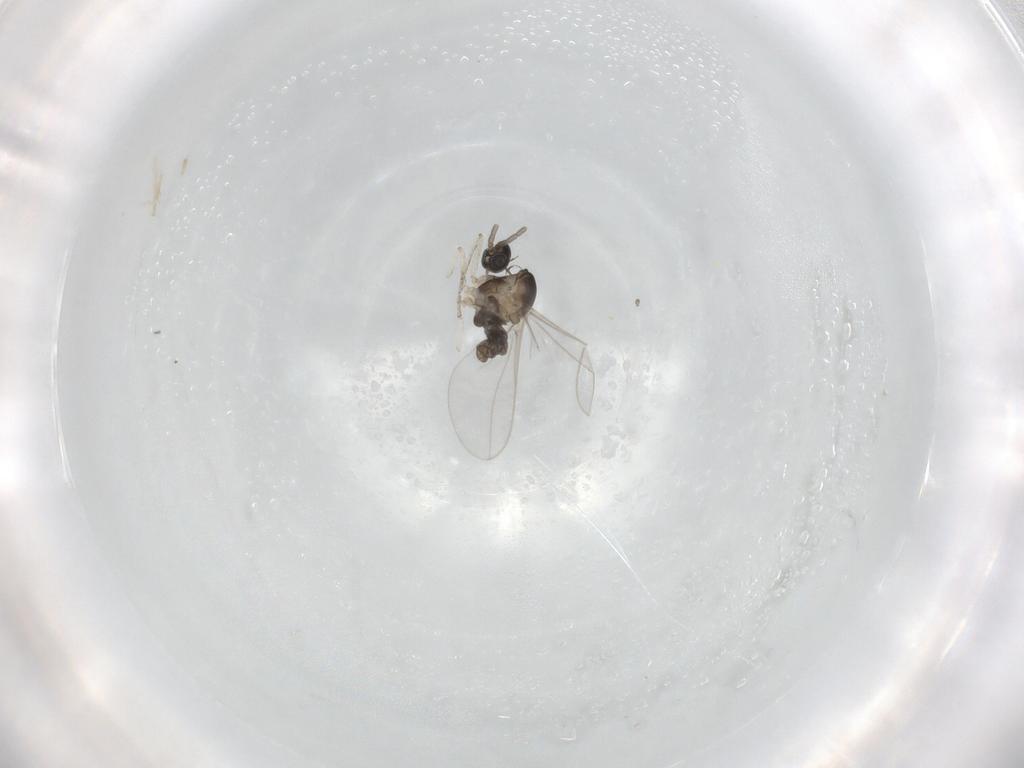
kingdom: Animalia
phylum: Arthropoda
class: Insecta
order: Diptera
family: Cecidomyiidae
